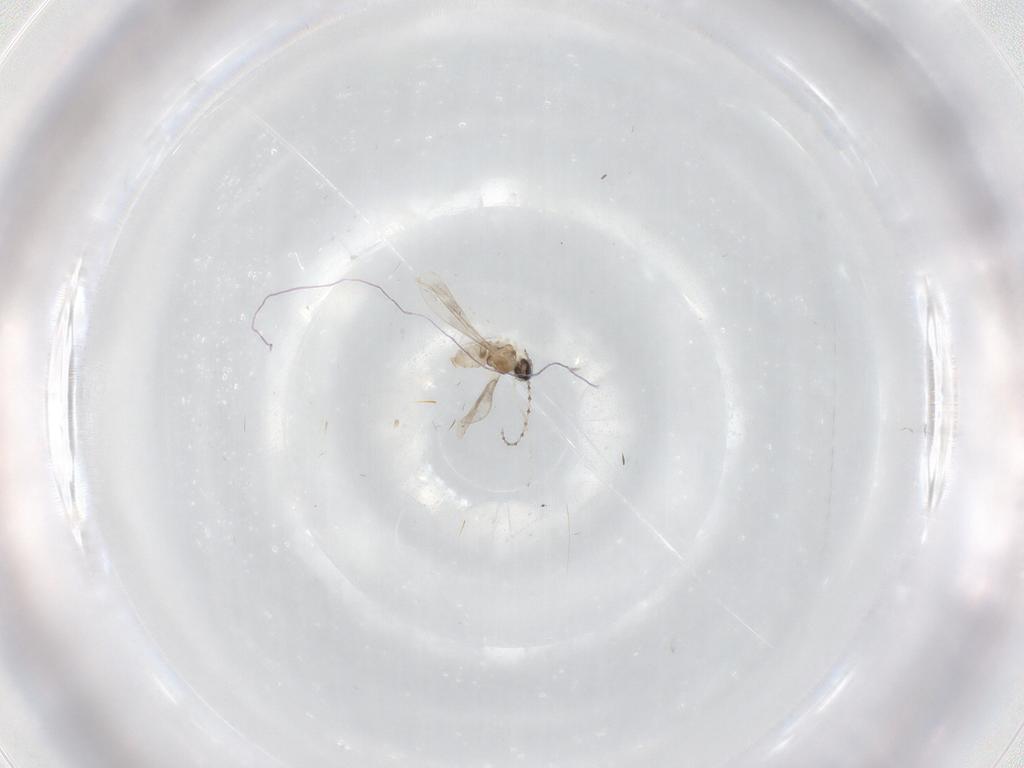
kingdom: Animalia
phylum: Arthropoda
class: Insecta
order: Diptera
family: Cecidomyiidae
